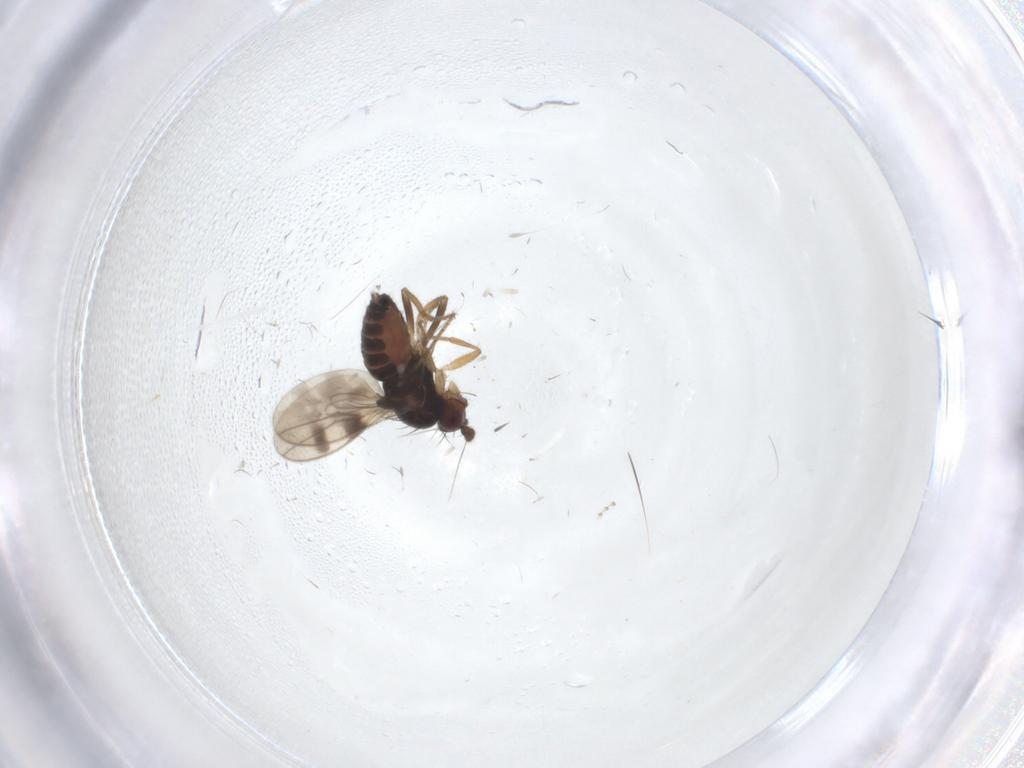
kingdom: Animalia
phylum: Arthropoda
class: Insecta
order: Diptera
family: Sphaeroceridae
